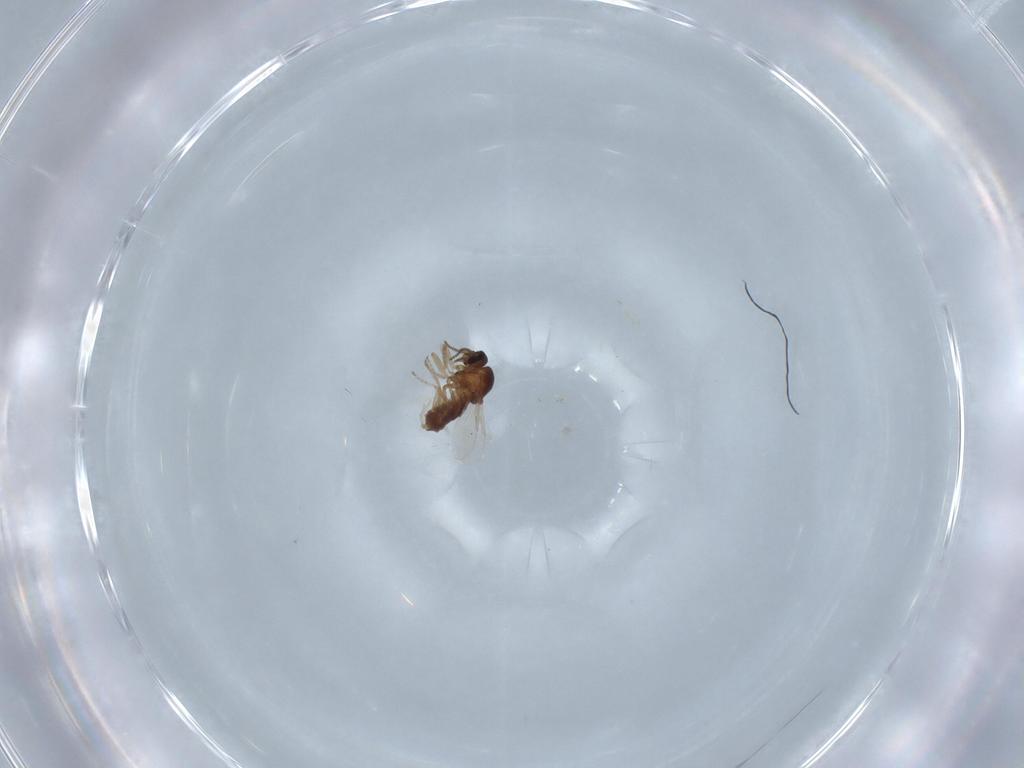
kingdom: Animalia
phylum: Arthropoda
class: Insecta
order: Diptera
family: Ceratopogonidae
